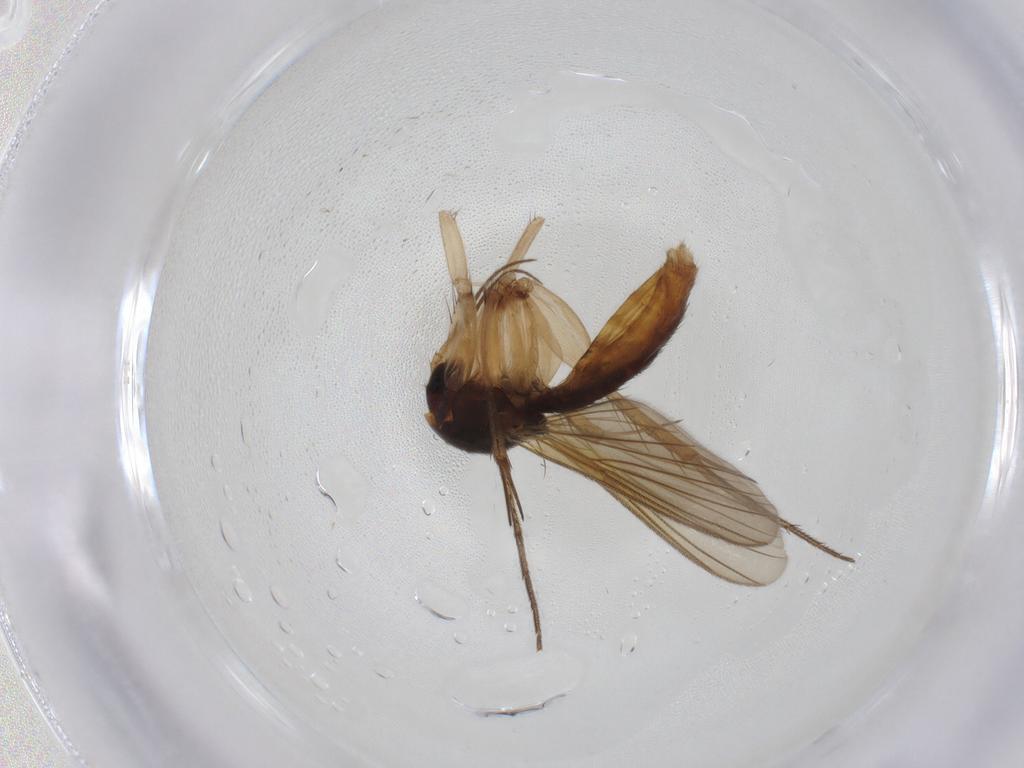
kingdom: Animalia
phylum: Arthropoda
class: Insecta
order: Diptera
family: Mycetophilidae
